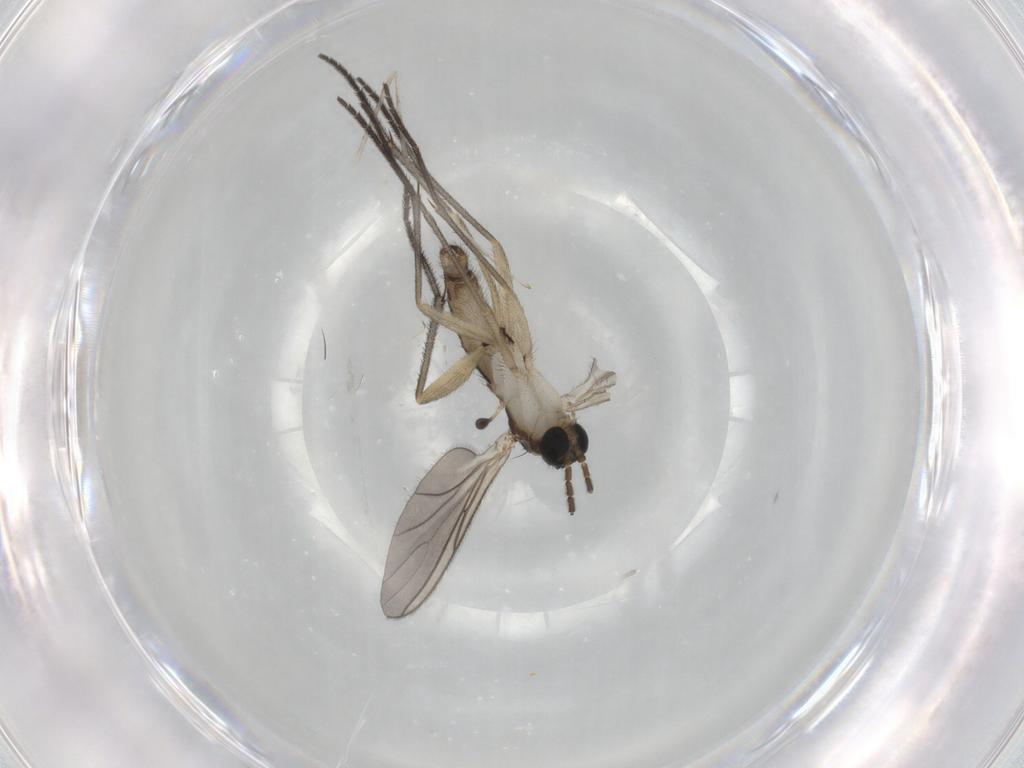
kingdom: Animalia
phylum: Arthropoda
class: Insecta
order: Diptera
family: Sciaridae
